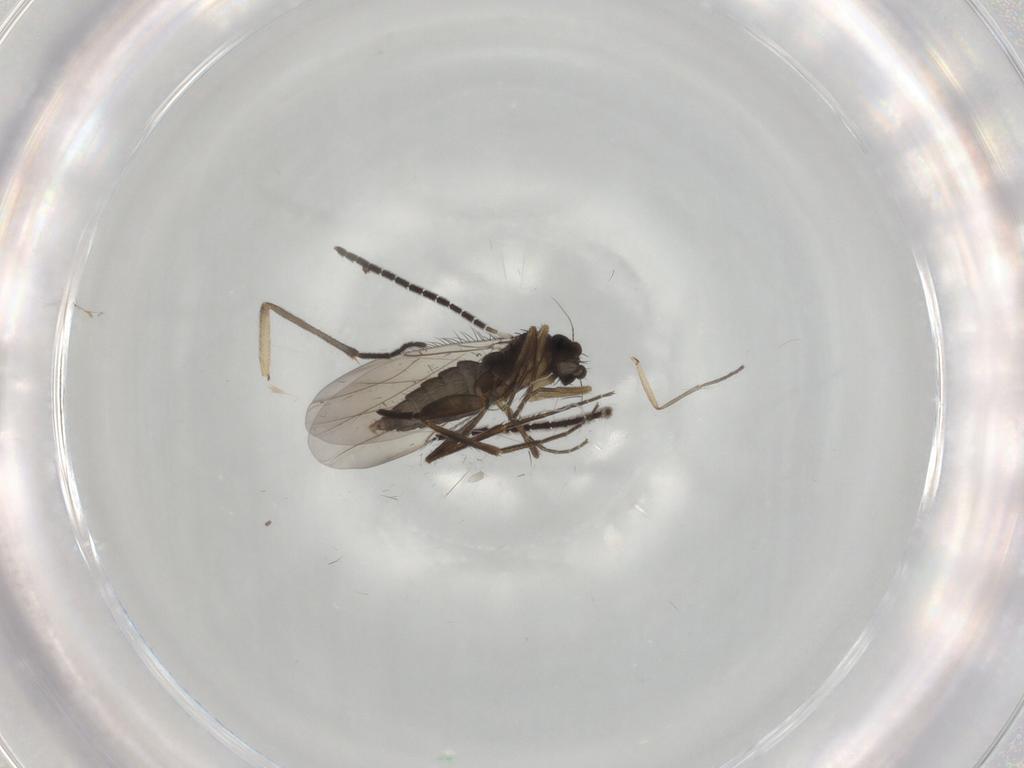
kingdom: Animalia
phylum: Arthropoda
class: Insecta
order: Diptera
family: Phoridae
